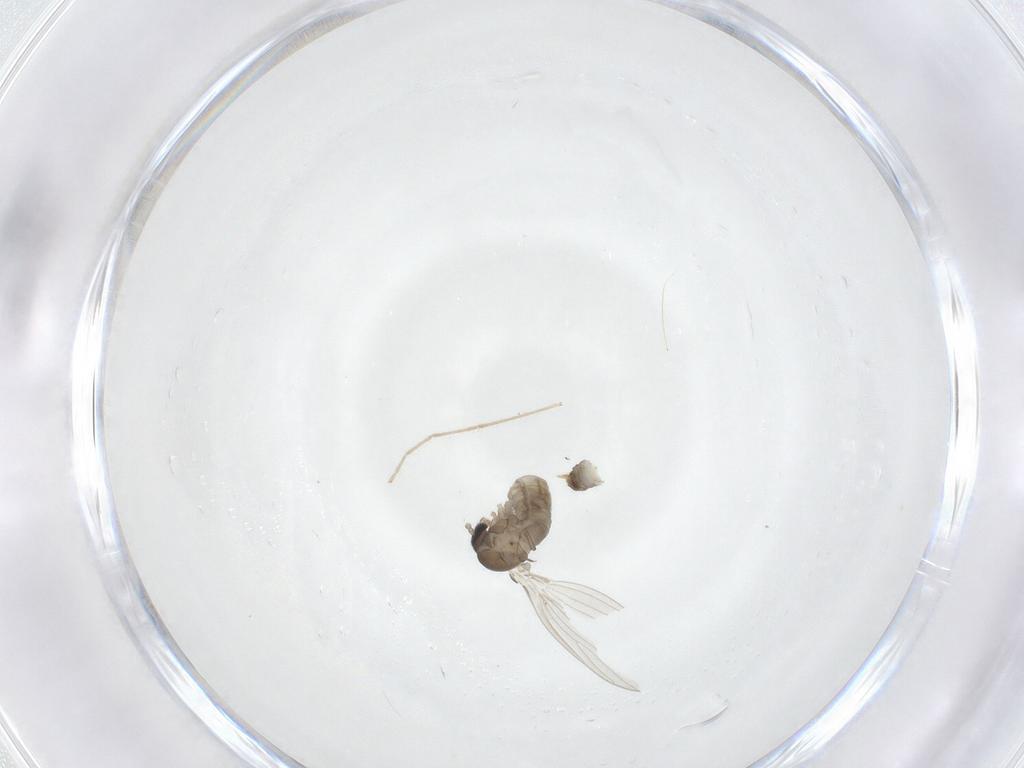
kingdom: Animalia
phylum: Arthropoda
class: Insecta
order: Diptera
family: Psychodidae
